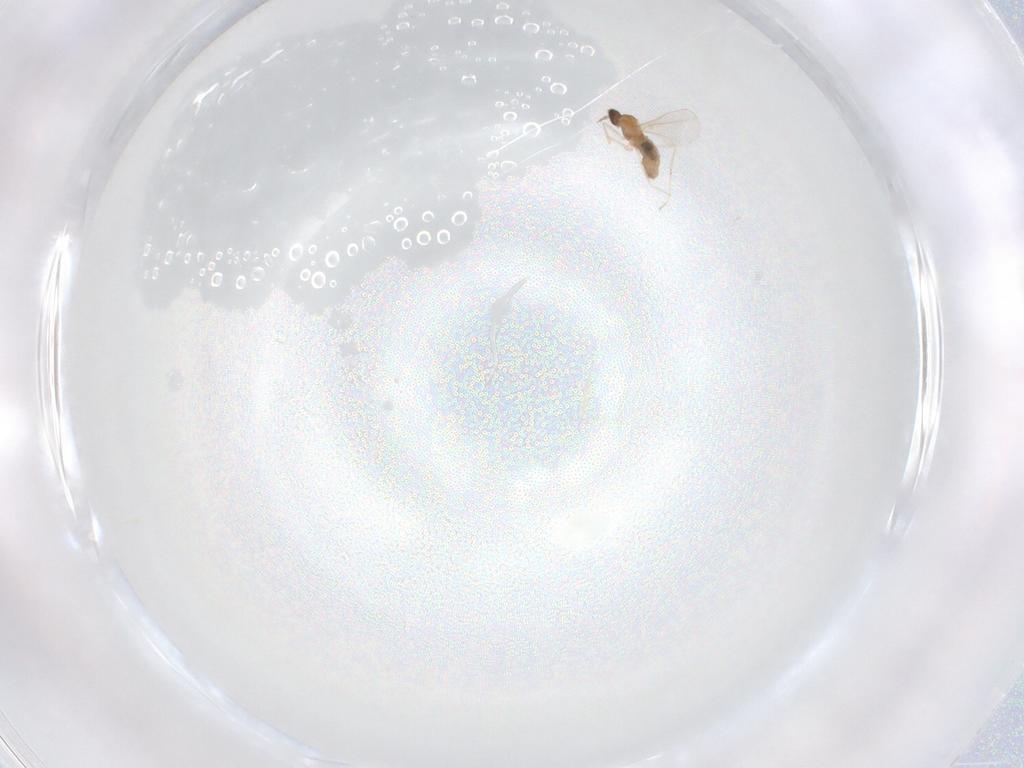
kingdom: Animalia
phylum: Arthropoda
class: Insecta
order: Diptera
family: Cecidomyiidae
